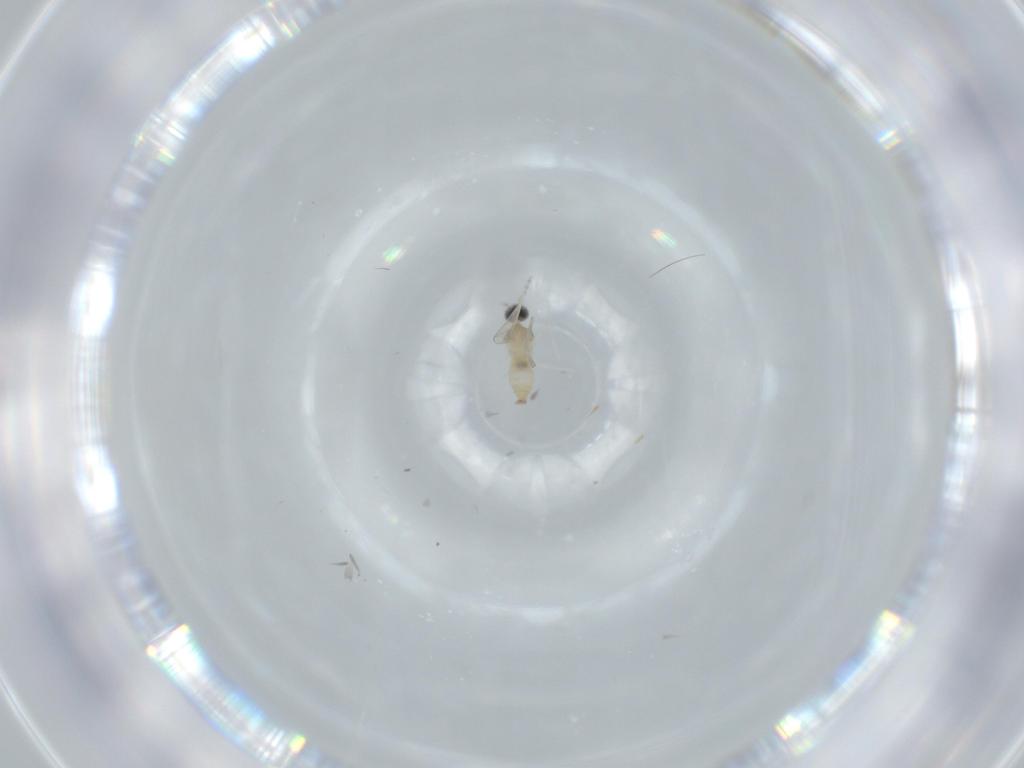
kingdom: Animalia
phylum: Arthropoda
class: Insecta
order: Diptera
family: Cecidomyiidae
